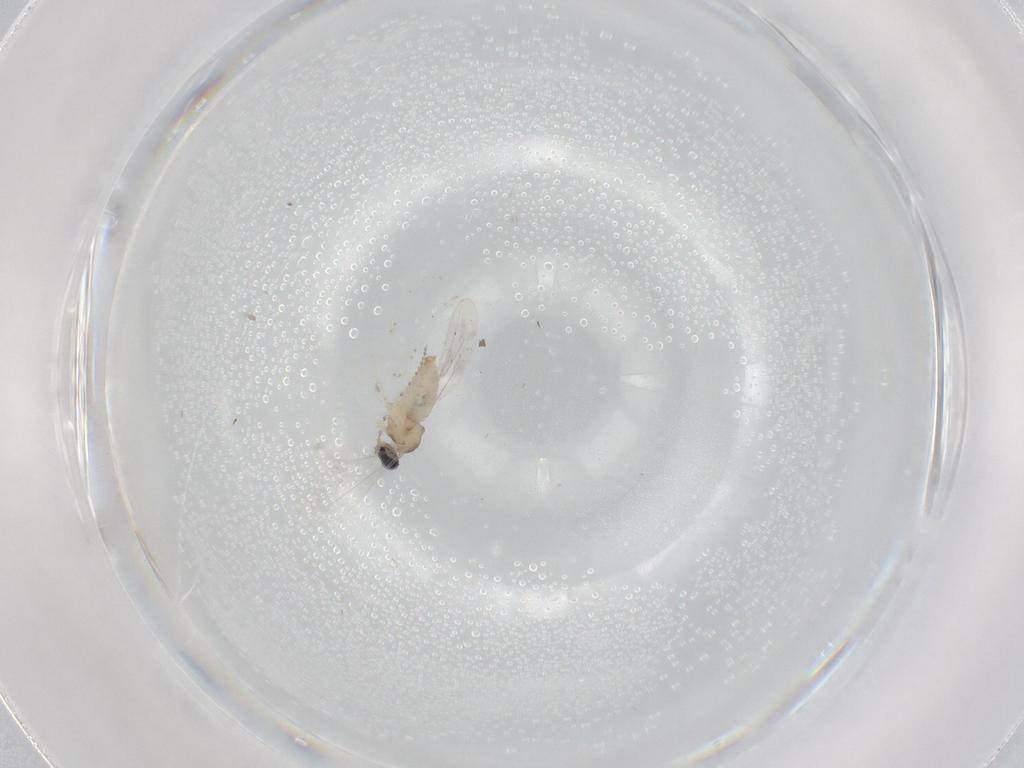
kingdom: Animalia
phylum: Arthropoda
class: Insecta
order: Diptera
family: Cecidomyiidae
